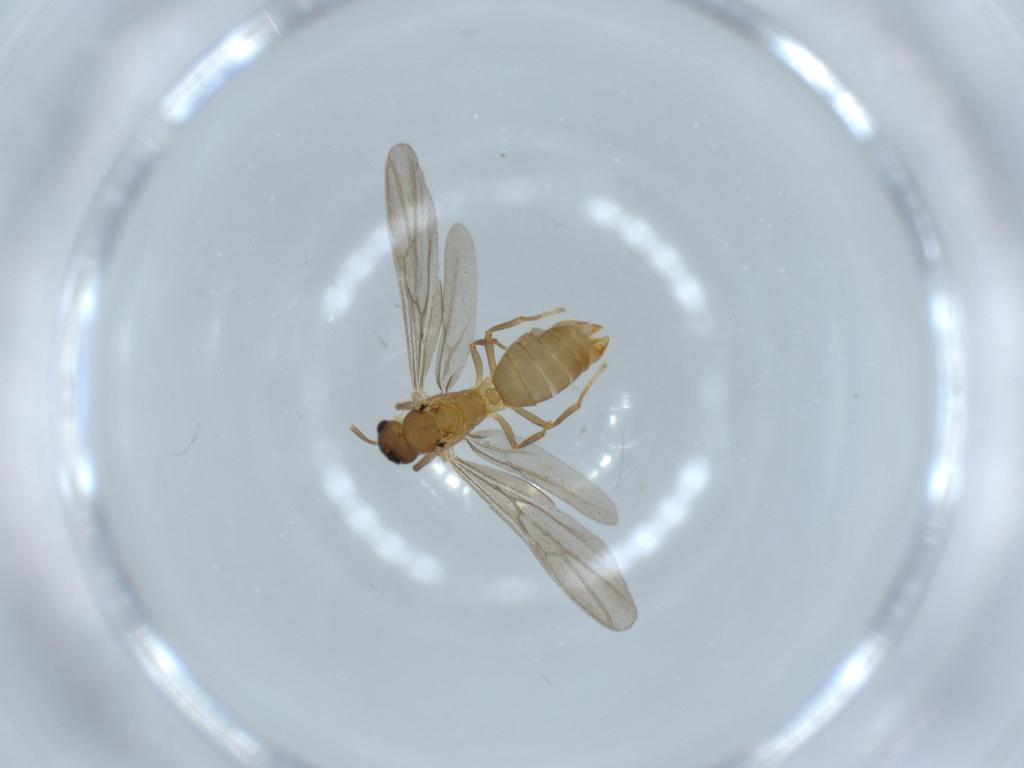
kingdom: Animalia
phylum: Arthropoda
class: Insecta
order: Hymenoptera
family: Formicidae
